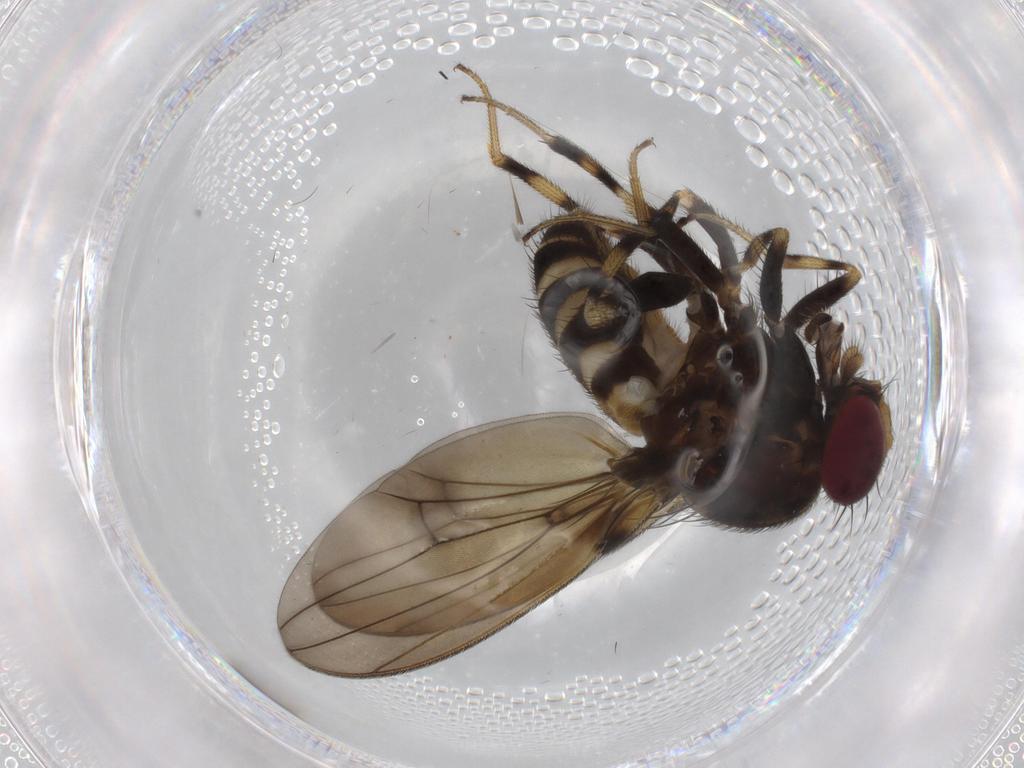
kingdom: Animalia
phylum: Arthropoda
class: Insecta
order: Diptera
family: Drosophilidae
